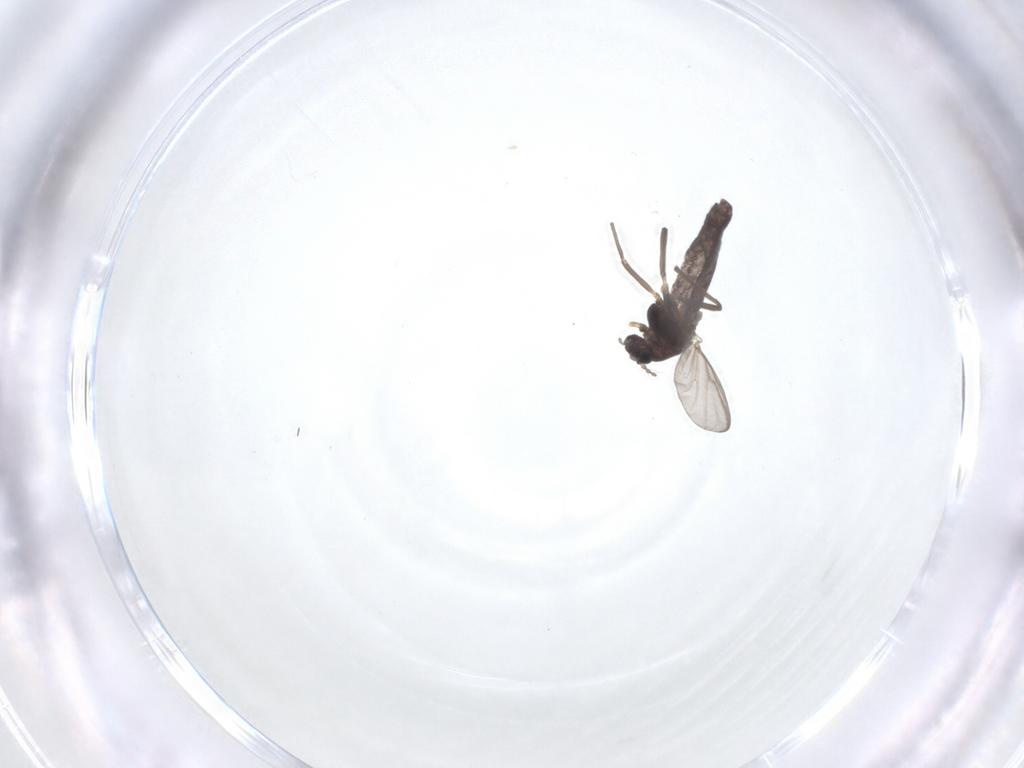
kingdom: Animalia
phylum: Arthropoda
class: Insecta
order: Diptera
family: Chironomidae
